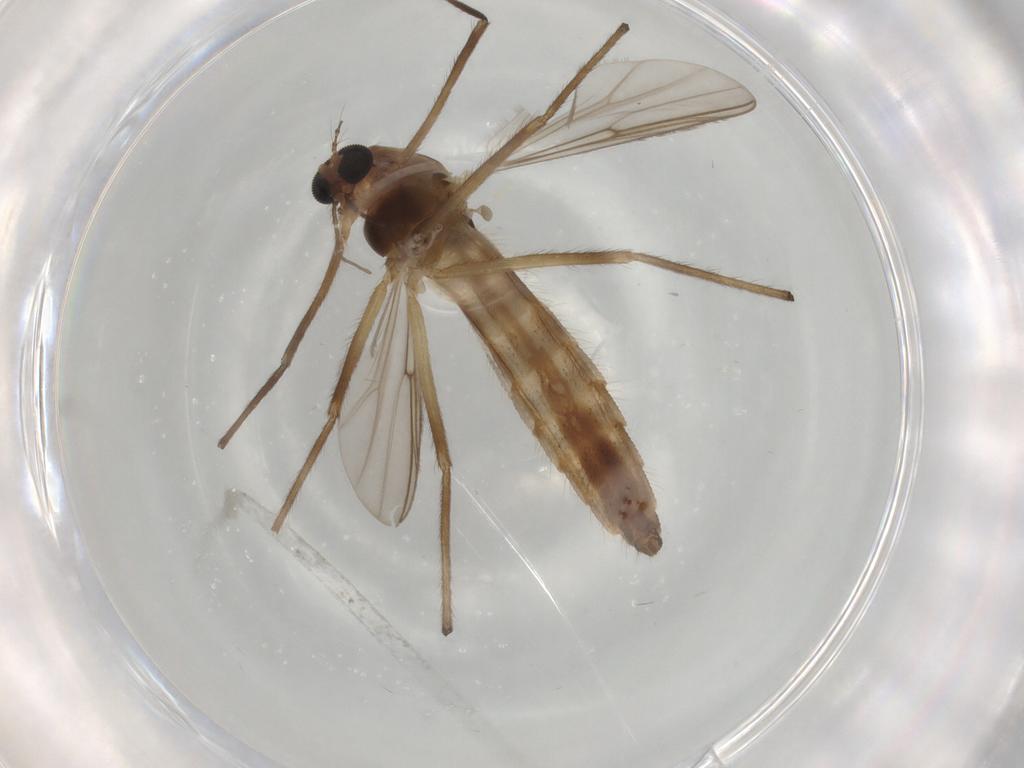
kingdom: Animalia
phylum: Arthropoda
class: Insecta
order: Diptera
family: Chironomidae
